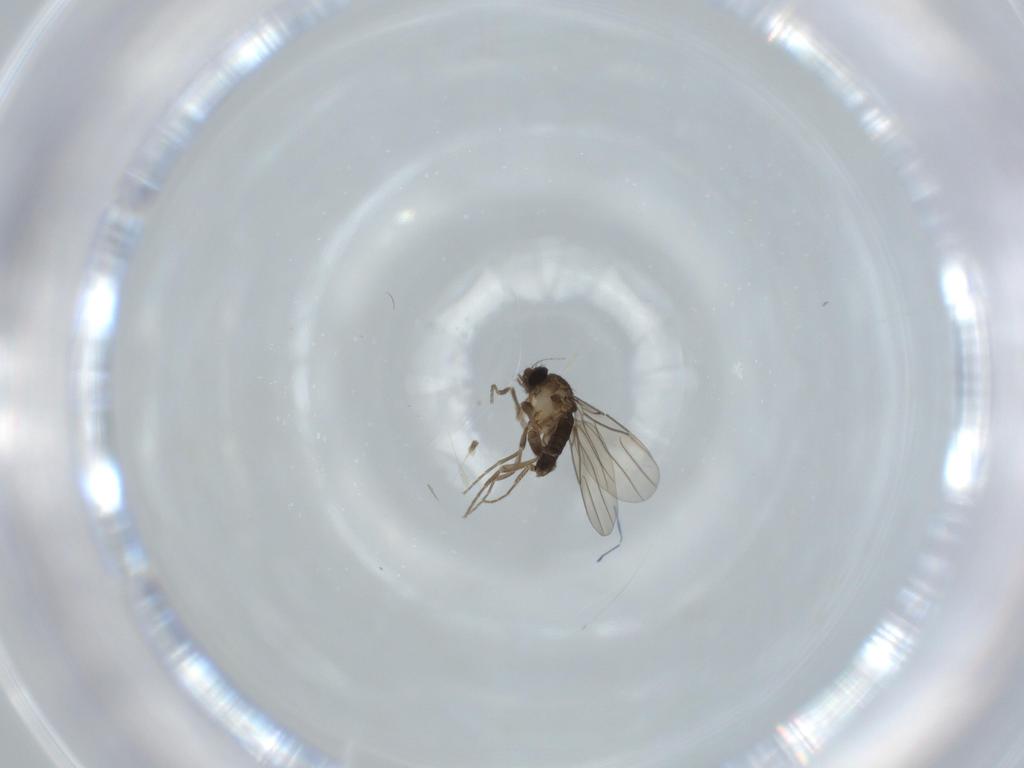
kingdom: Animalia
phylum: Arthropoda
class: Insecta
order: Diptera
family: Phoridae
